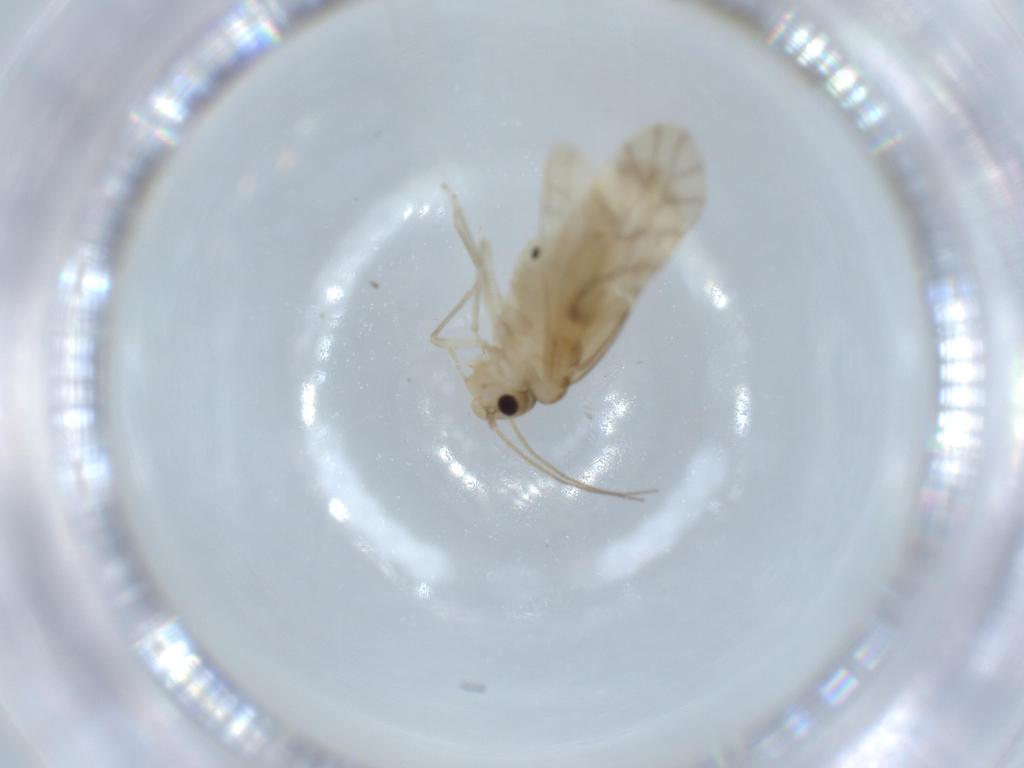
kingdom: Animalia
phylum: Arthropoda
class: Insecta
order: Psocodea
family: Caeciliusidae
